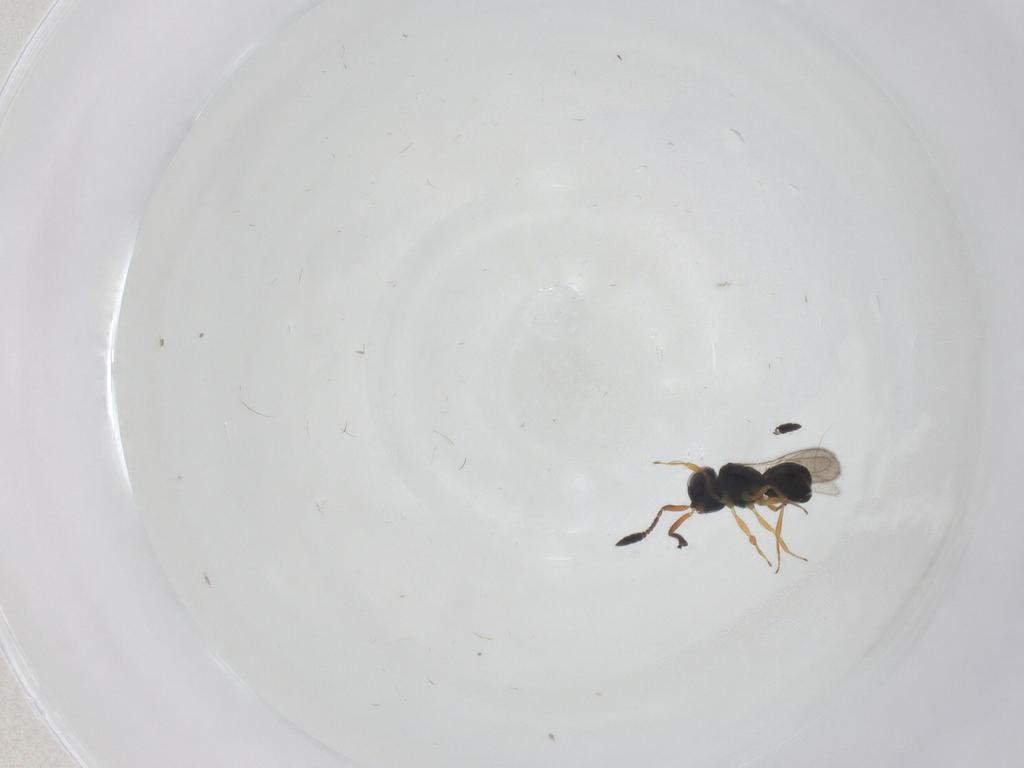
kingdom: Animalia
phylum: Arthropoda
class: Insecta
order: Hymenoptera
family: Scelionidae
